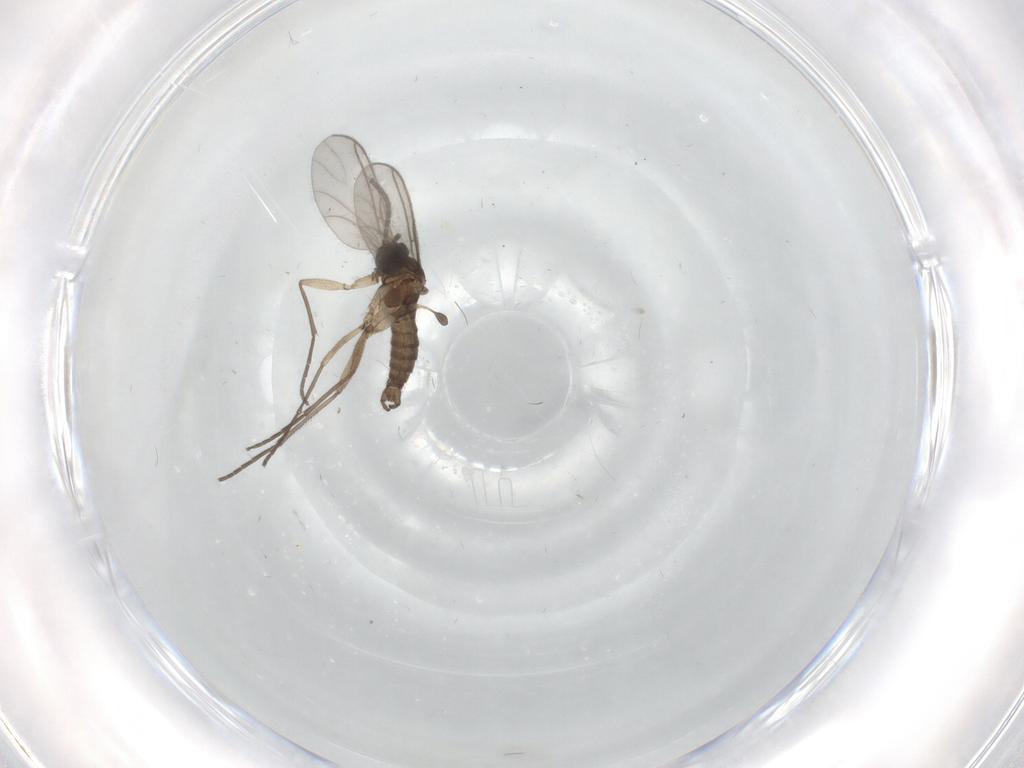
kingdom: Animalia
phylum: Arthropoda
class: Insecta
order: Diptera
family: Sciaridae
